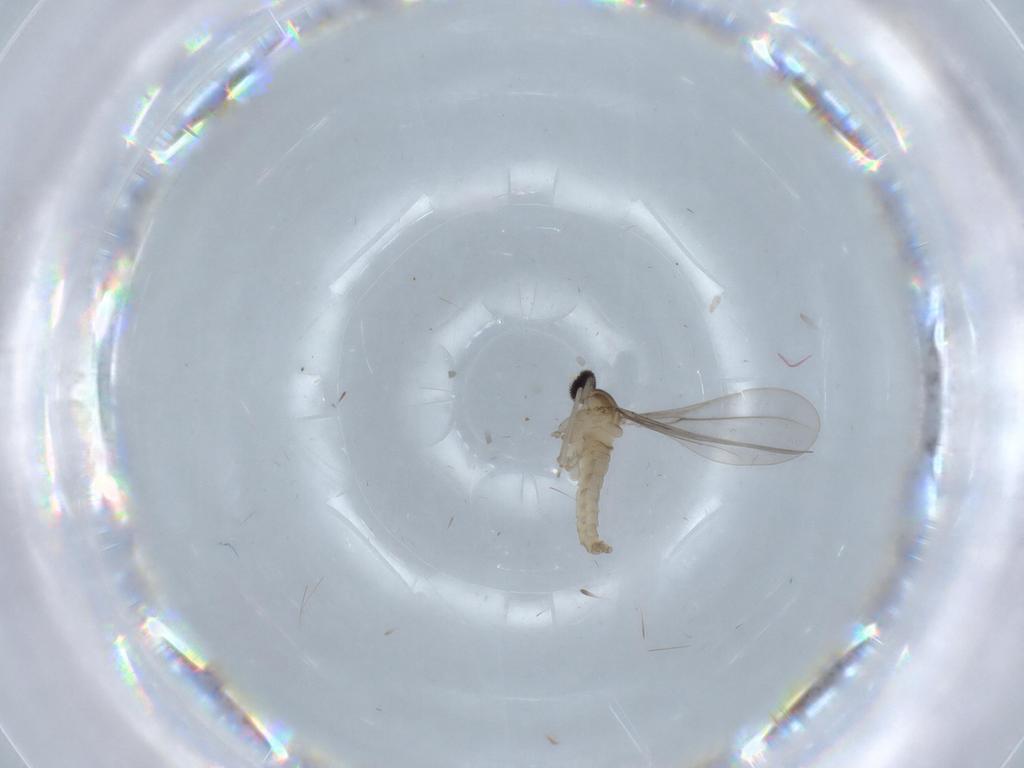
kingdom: Animalia
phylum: Arthropoda
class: Insecta
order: Diptera
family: Cecidomyiidae
